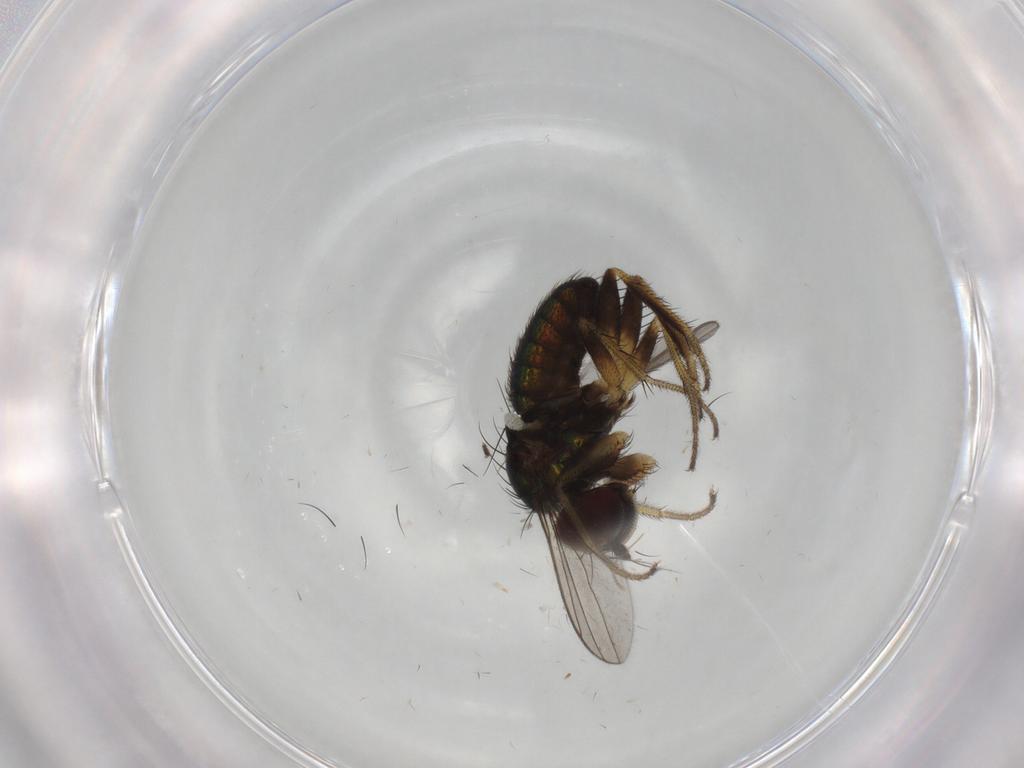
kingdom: Animalia
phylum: Arthropoda
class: Insecta
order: Diptera
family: Dolichopodidae
